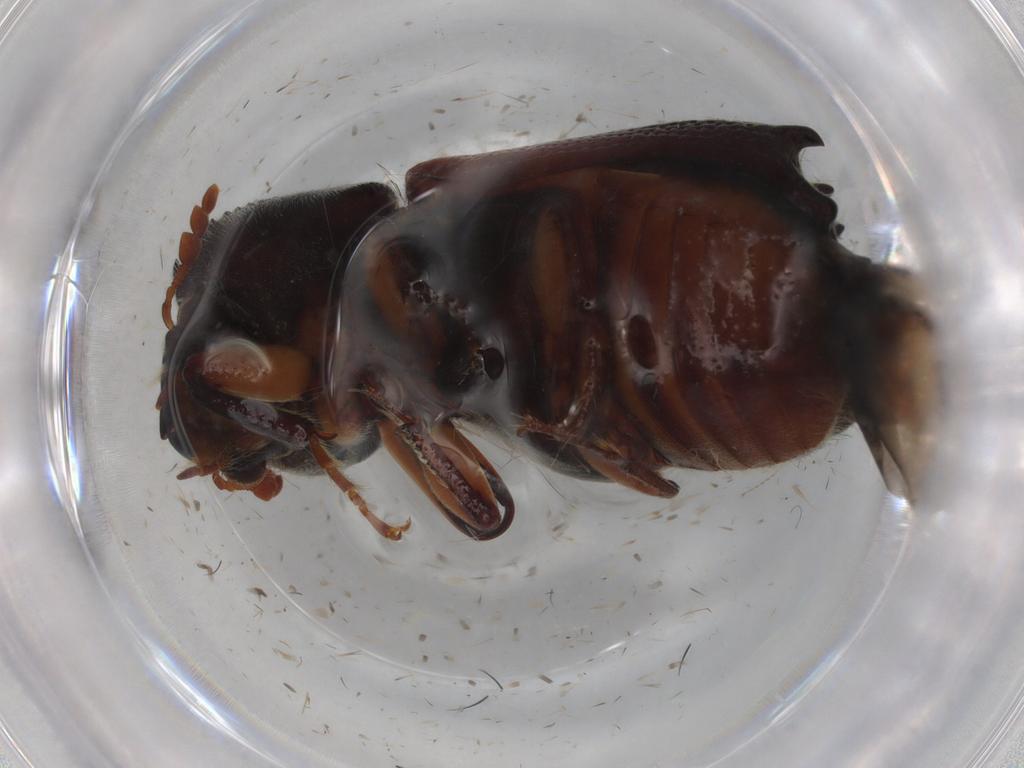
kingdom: Animalia
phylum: Arthropoda
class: Insecta
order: Coleoptera
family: Bostrichidae
